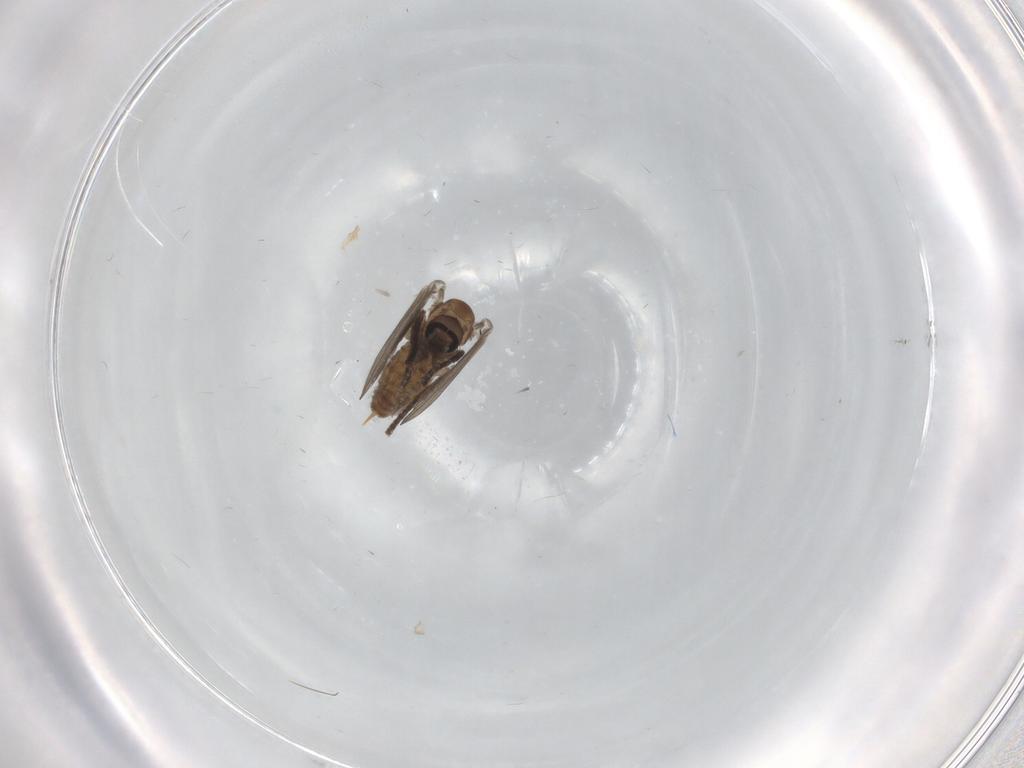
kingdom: Animalia
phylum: Arthropoda
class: Insecta
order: Diptera
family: Psychodidae
